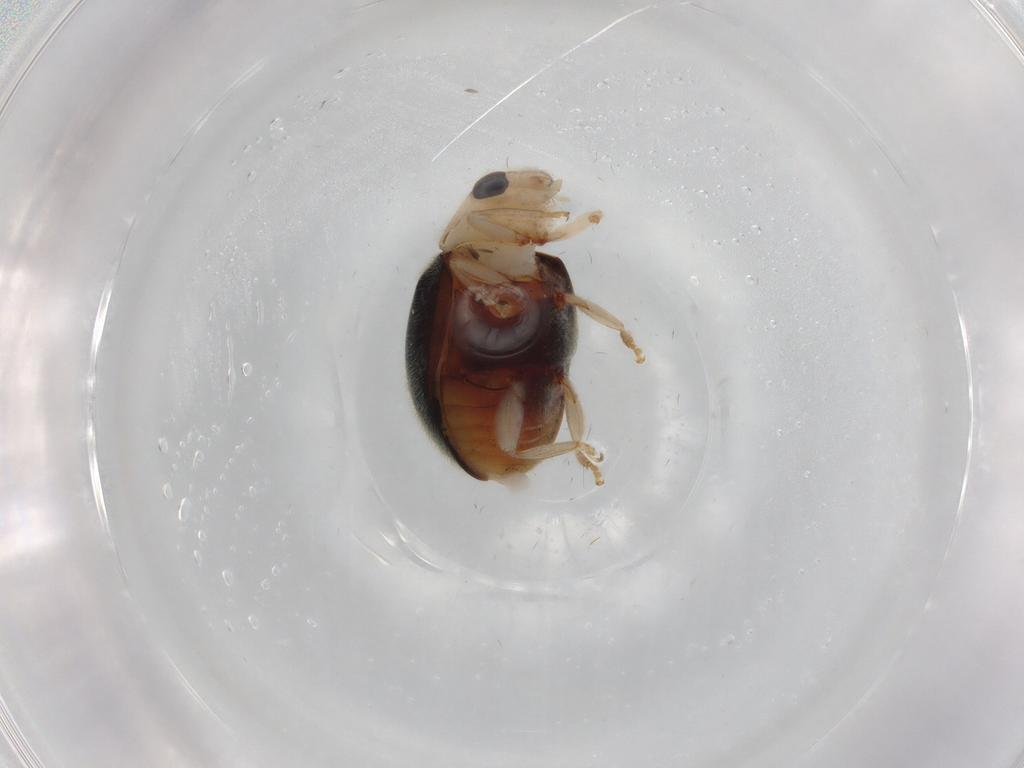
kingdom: Animalia
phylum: Arthropoda
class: Insecta
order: Coleoptera
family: Coccinellidae
